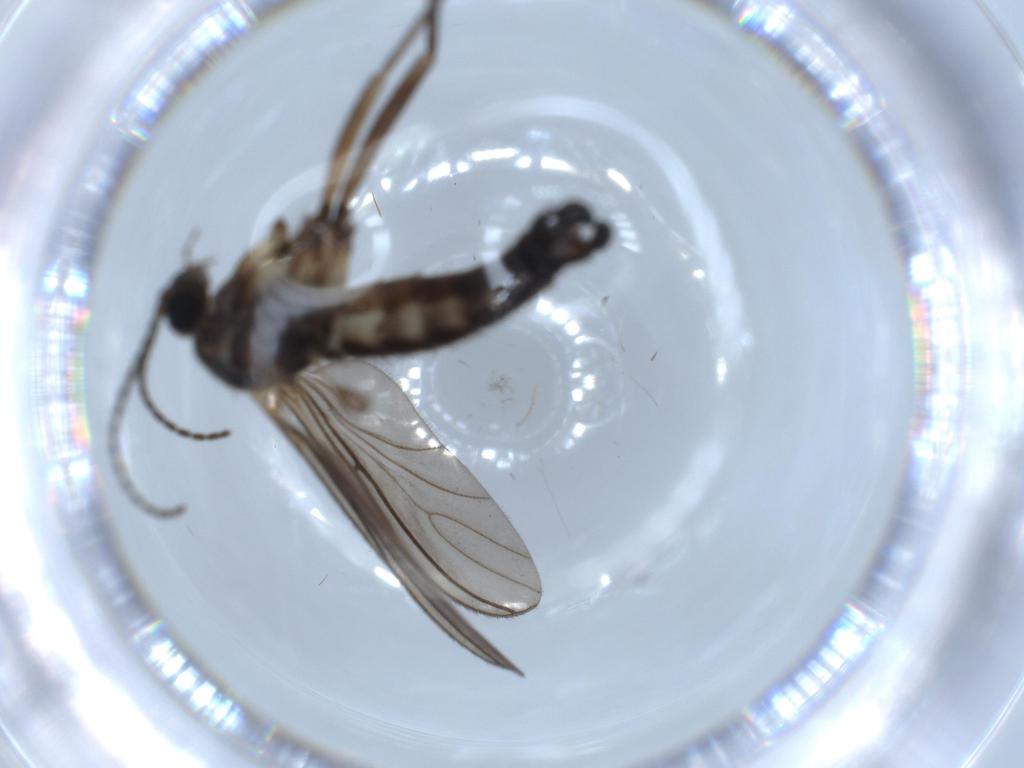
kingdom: Animalia
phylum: Arthropoda
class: Insecta
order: Diptera
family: Sciaridae
